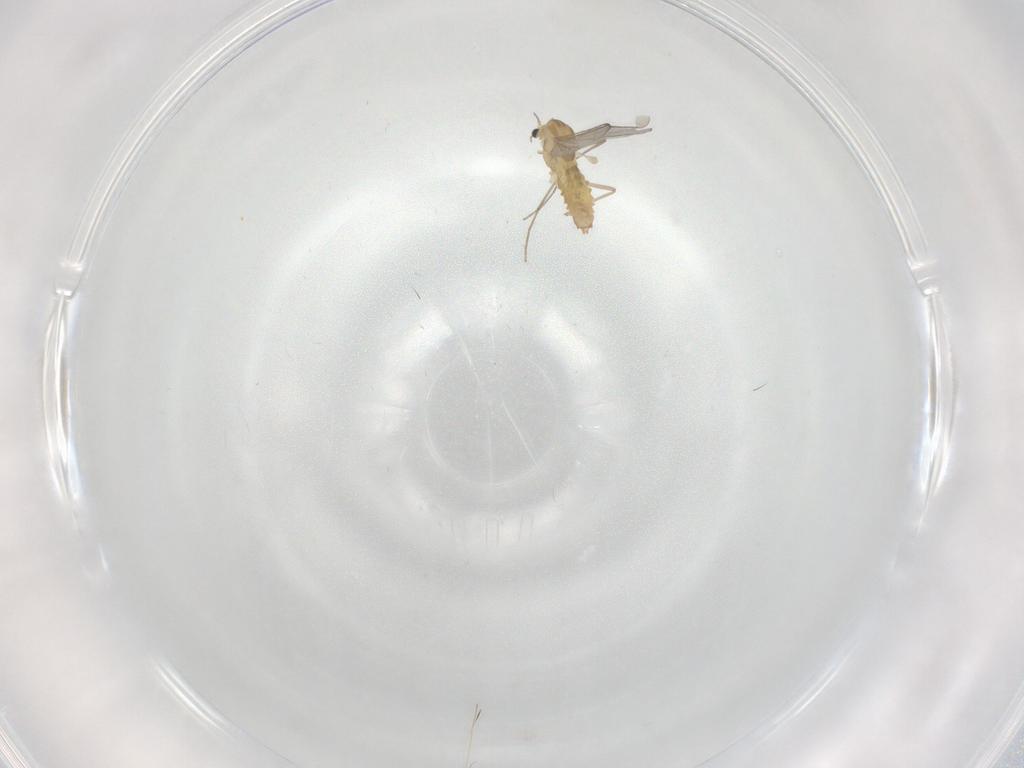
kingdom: Animalia
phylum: Arthropoda
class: Insecta
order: Diptera
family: Chironomidae
